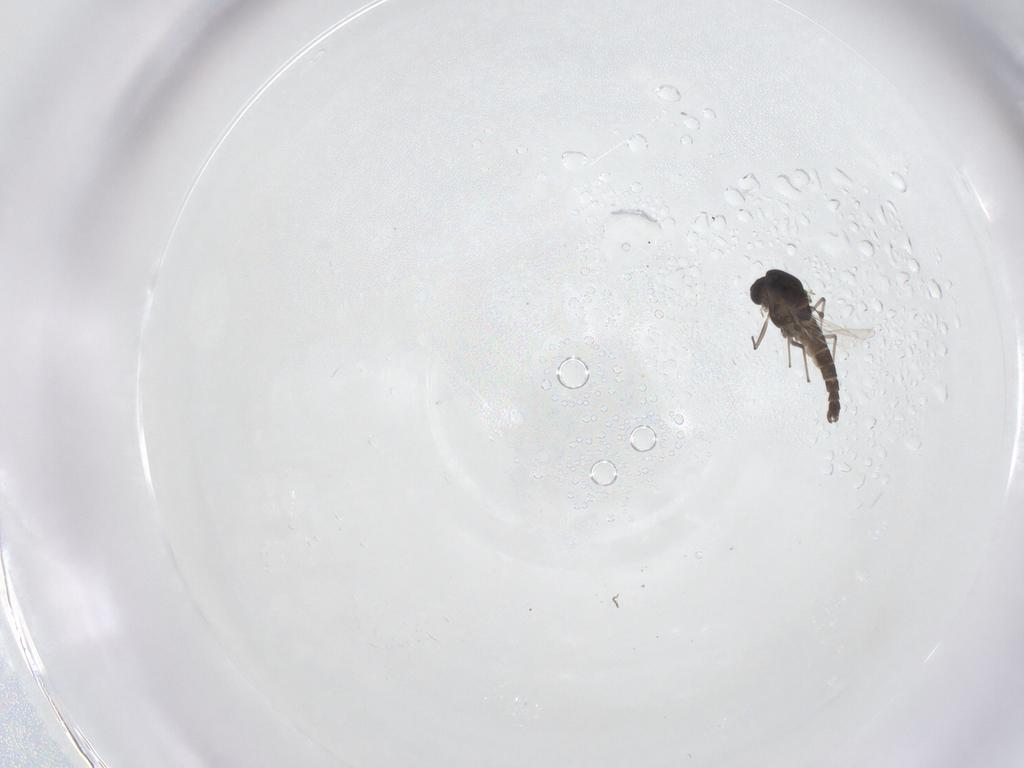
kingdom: Animalia
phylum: Arthropoda
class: Insecta
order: Diptera
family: Chironomidae
